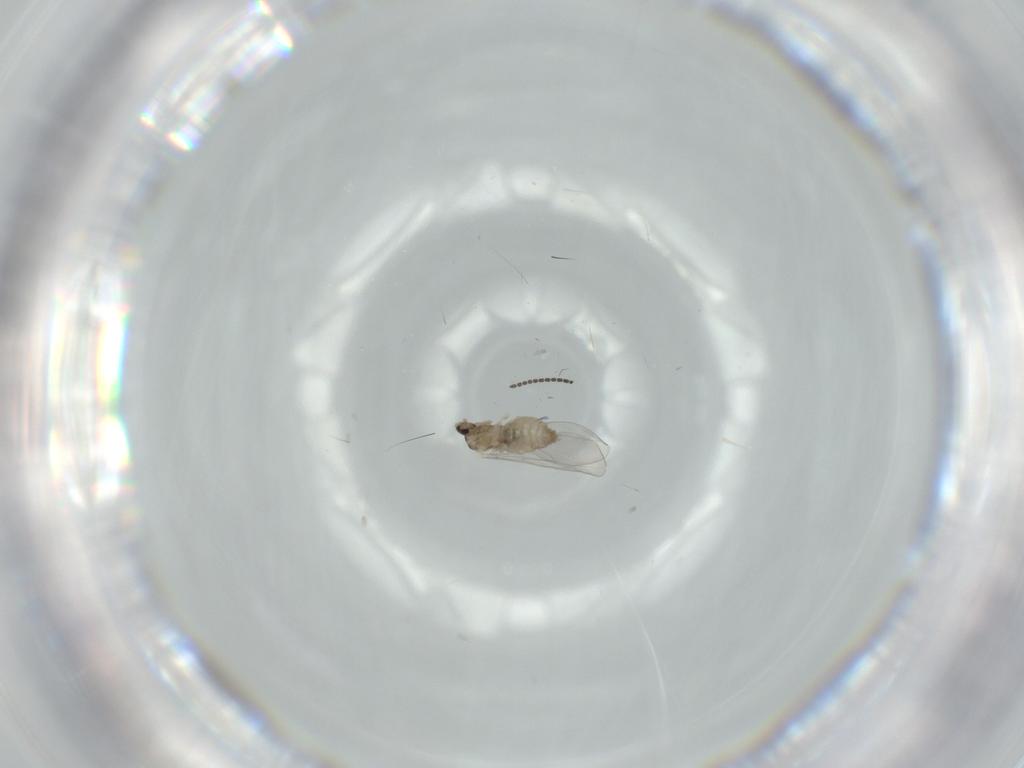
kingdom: Animalia
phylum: Arthropoda
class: Insecta
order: Diptera
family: Cecidomyiidae
